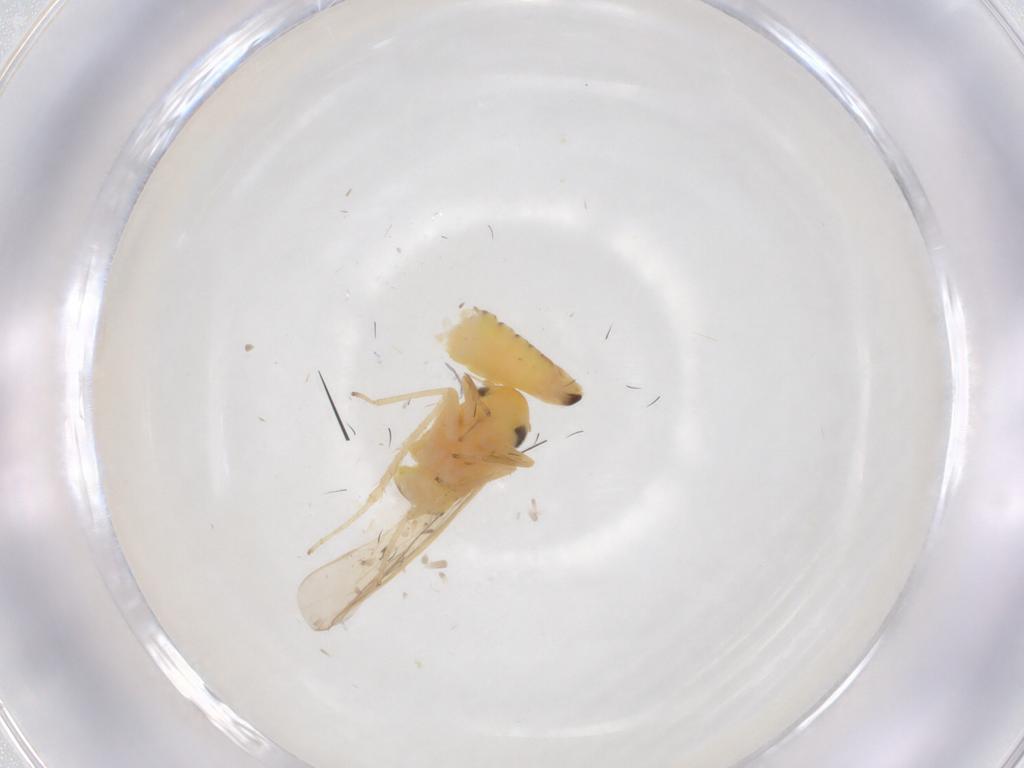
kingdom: Animalia
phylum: Arthropoda
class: Insecta
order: Hemiptera
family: Cicadellidae
